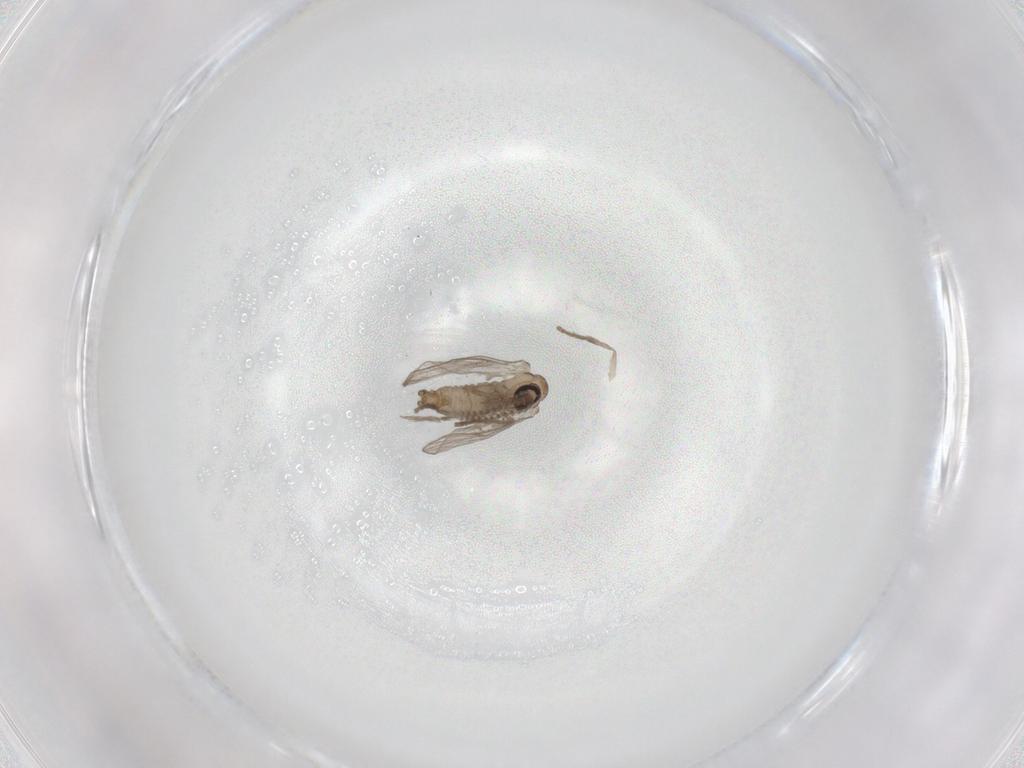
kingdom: Animalia
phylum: Arthropoda
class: Insecta
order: Diptera
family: Psychodidae
